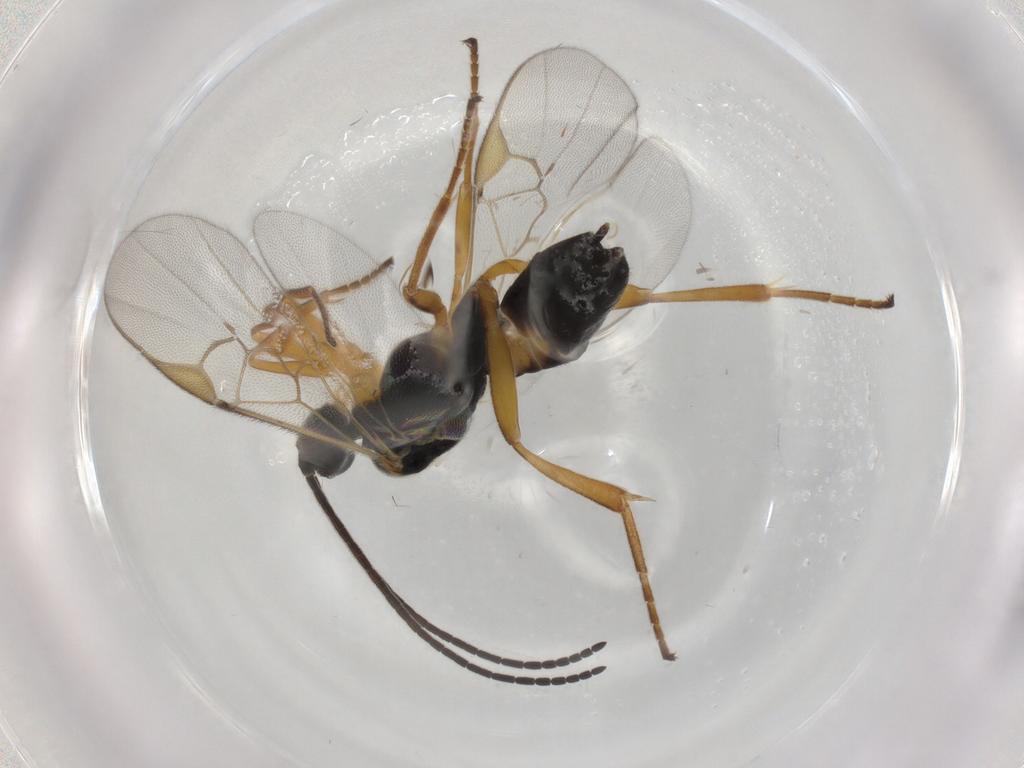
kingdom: Animalia
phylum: Arthropoda
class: Insecta
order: Hymenoptera
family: Braconidae
